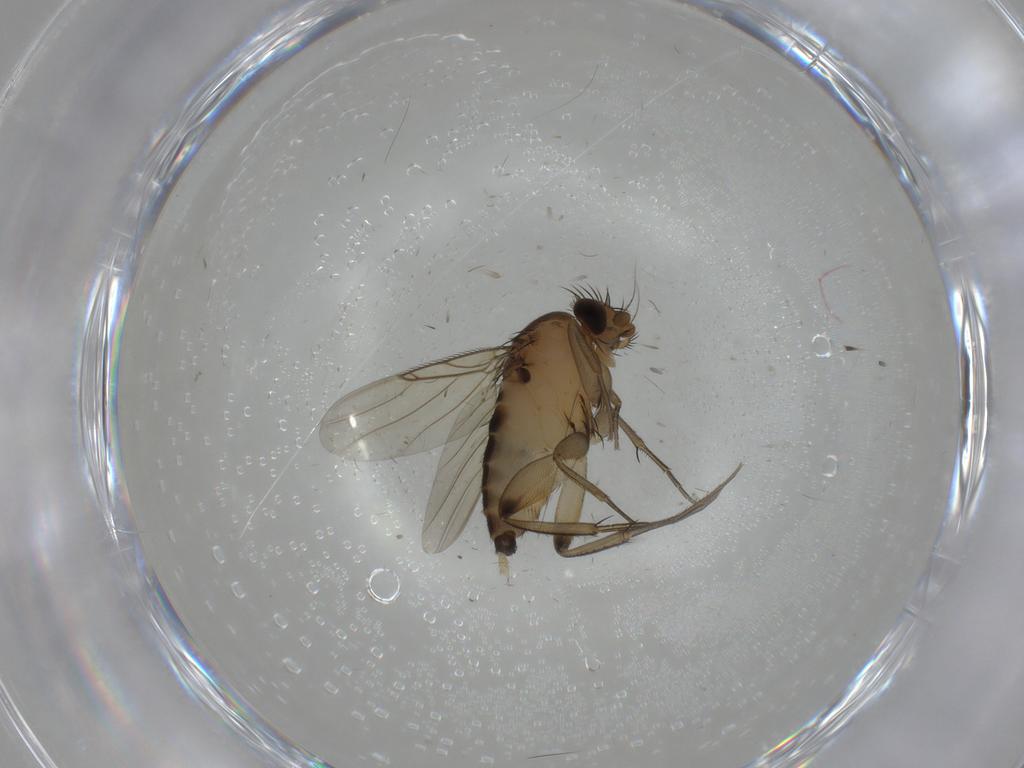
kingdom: Animalia
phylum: Arthropoda
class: Insecta
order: Diptera
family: Phoridae
